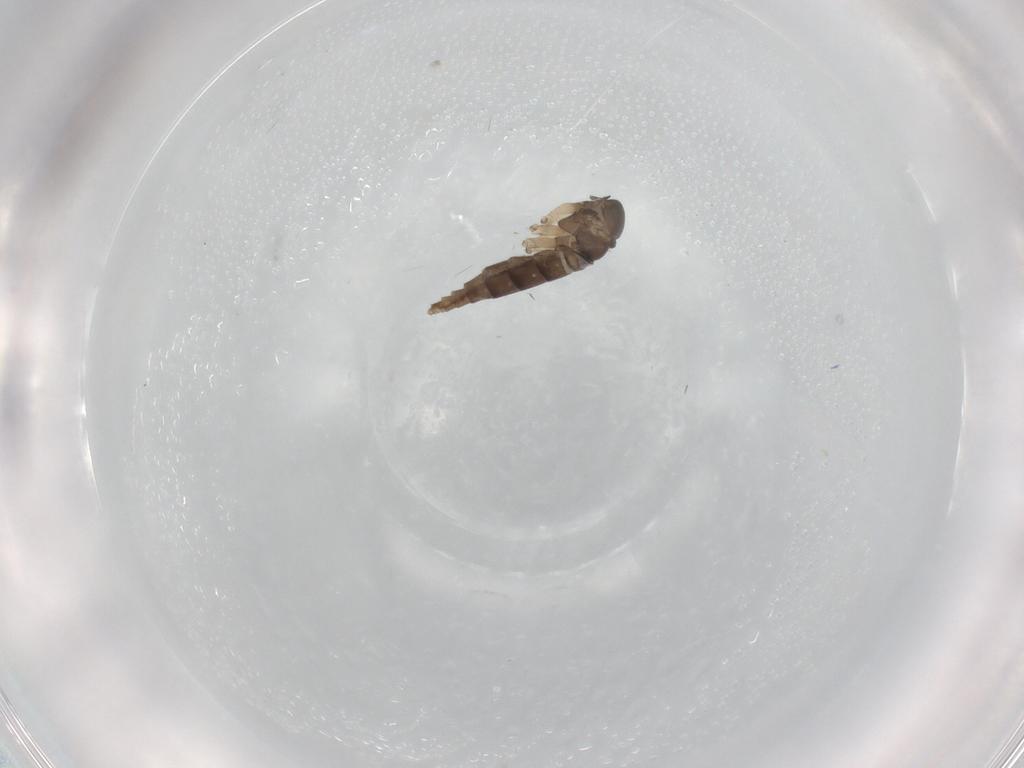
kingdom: Animalia
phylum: Arthropoda
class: Insecta
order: Diptera
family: Sciaridae
